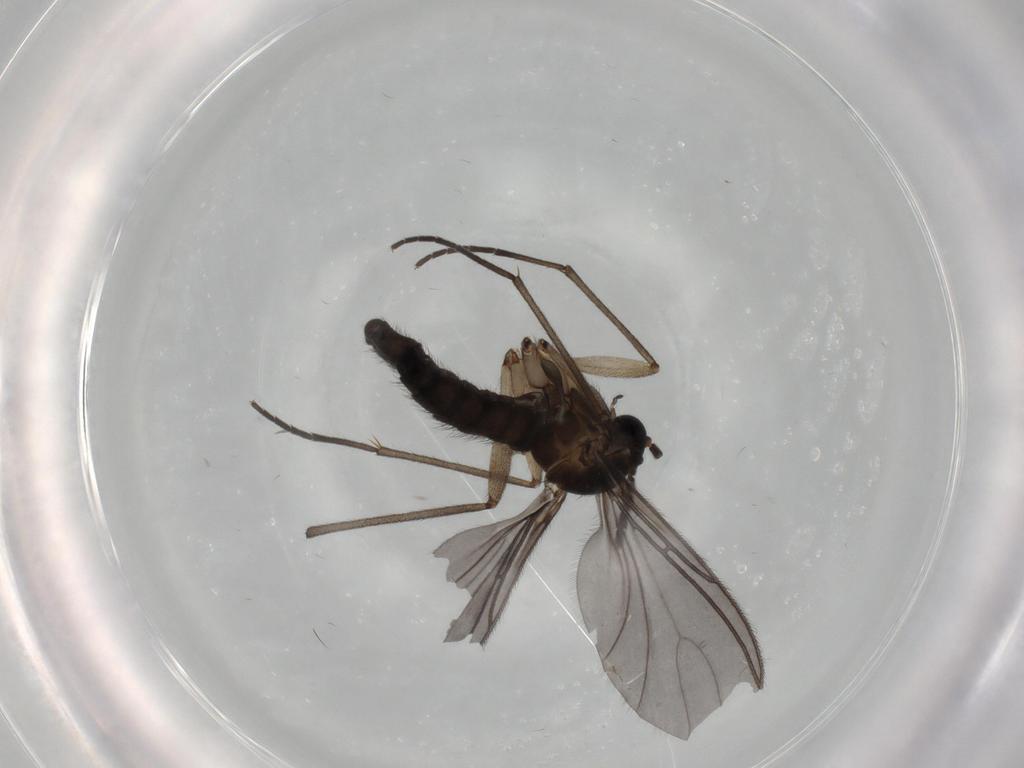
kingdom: Animalia
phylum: Arthropoda
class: Insecta
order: Diptera
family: Sciaridae
